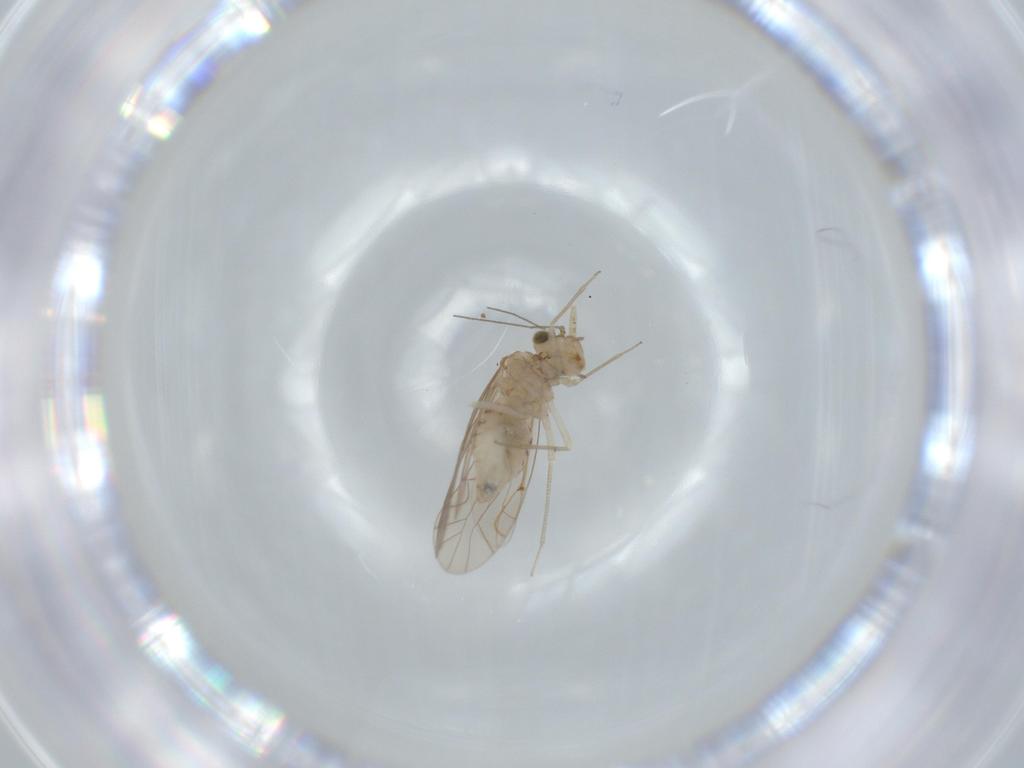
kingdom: Animalia
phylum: Arthropoda
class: Insecta
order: Psocodea
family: Lachesillidae
